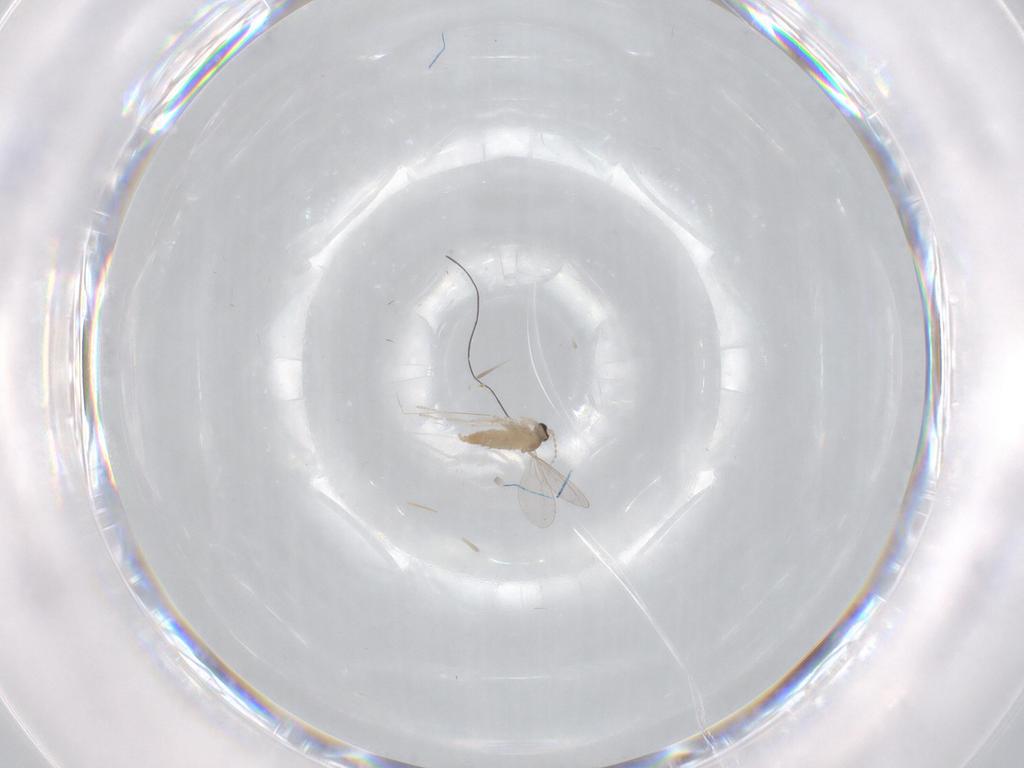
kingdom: Animalia
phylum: Arthropoda
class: Insecta
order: Diptera
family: Cecidomyiidae
